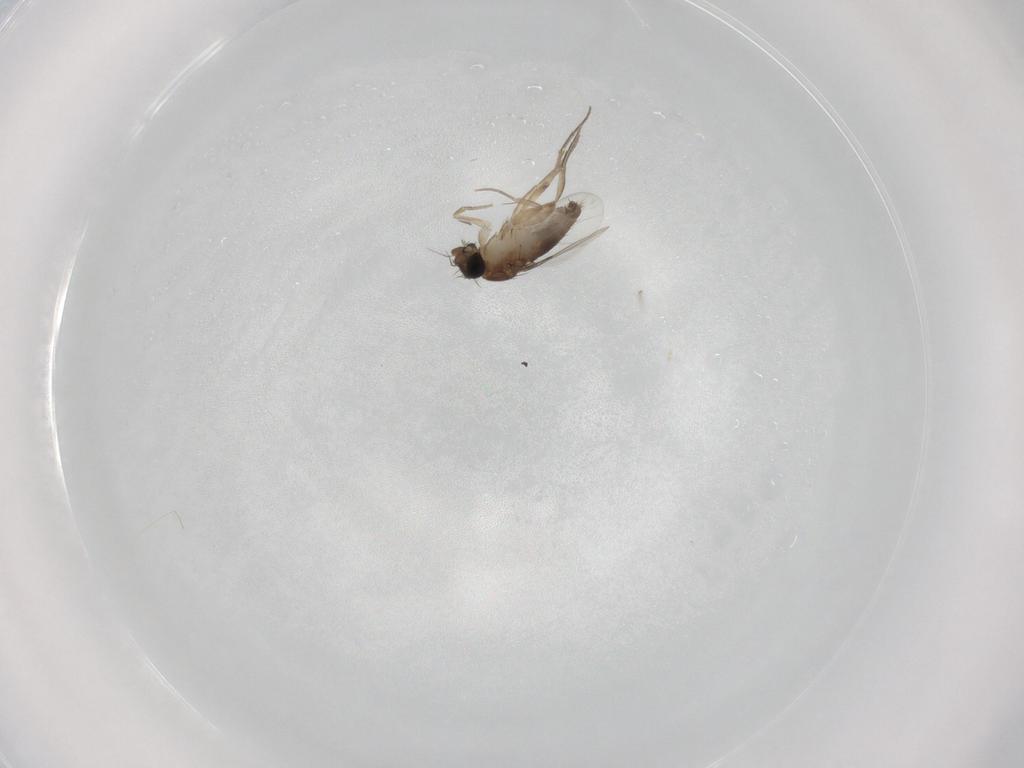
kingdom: Animalia
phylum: Arthropoda
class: Insecta
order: Diptera
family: Phoridae
